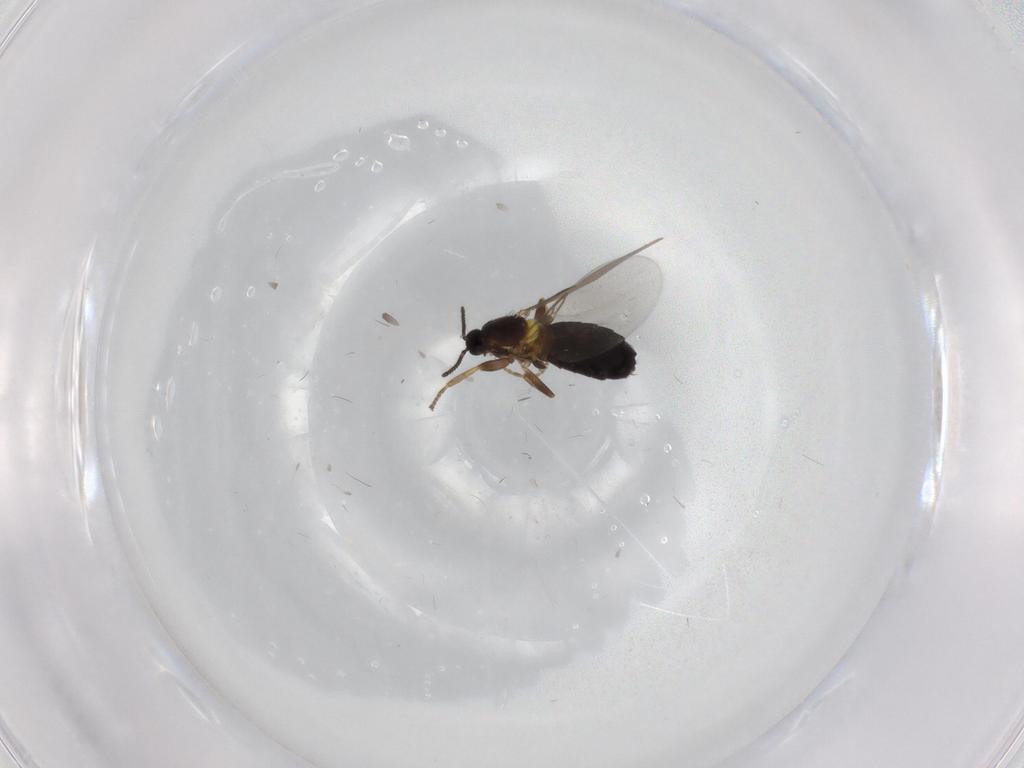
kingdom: Animalia
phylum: Arthropoda
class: Insecta
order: Diptera
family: Scatopsidae
